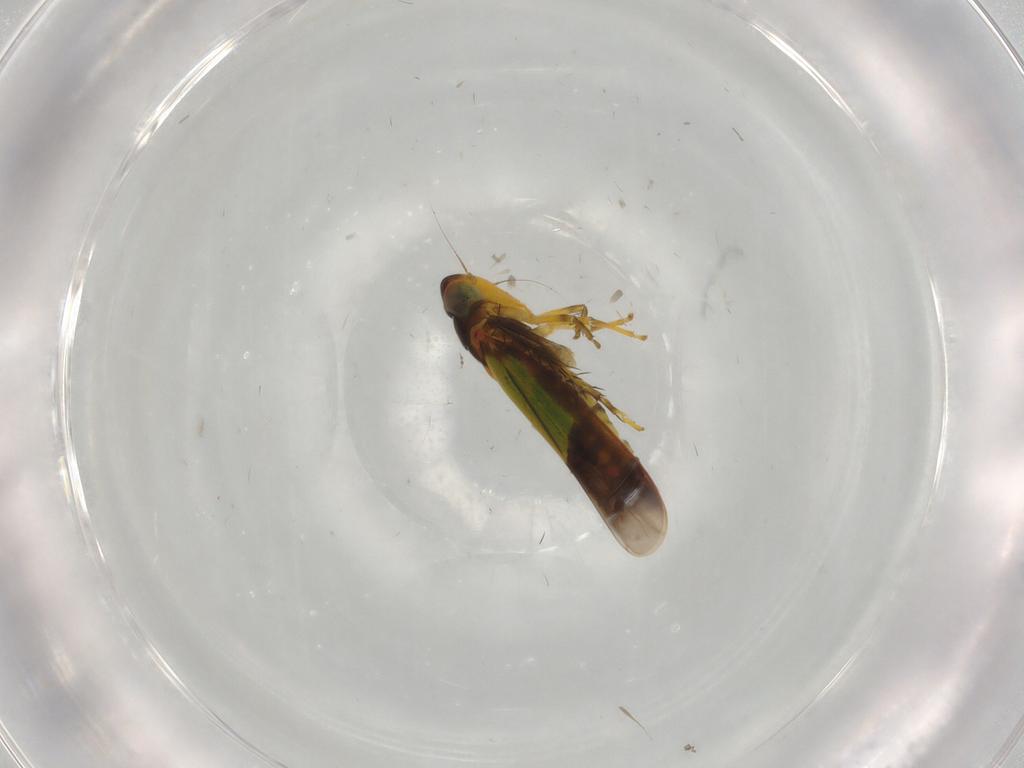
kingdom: Animalia
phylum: Arthropoda
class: Insecta
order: Hemiptera
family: Cicadellidae
